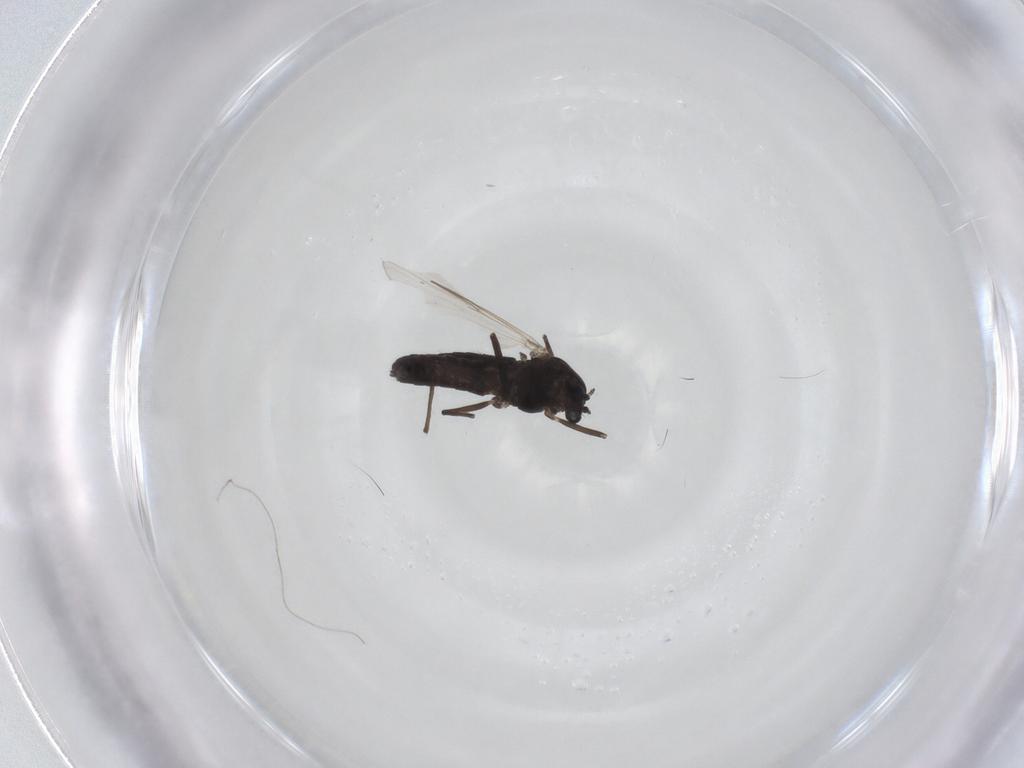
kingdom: Animalia
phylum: Arthropoda
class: Insecta
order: Diptera
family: Chironomidae
